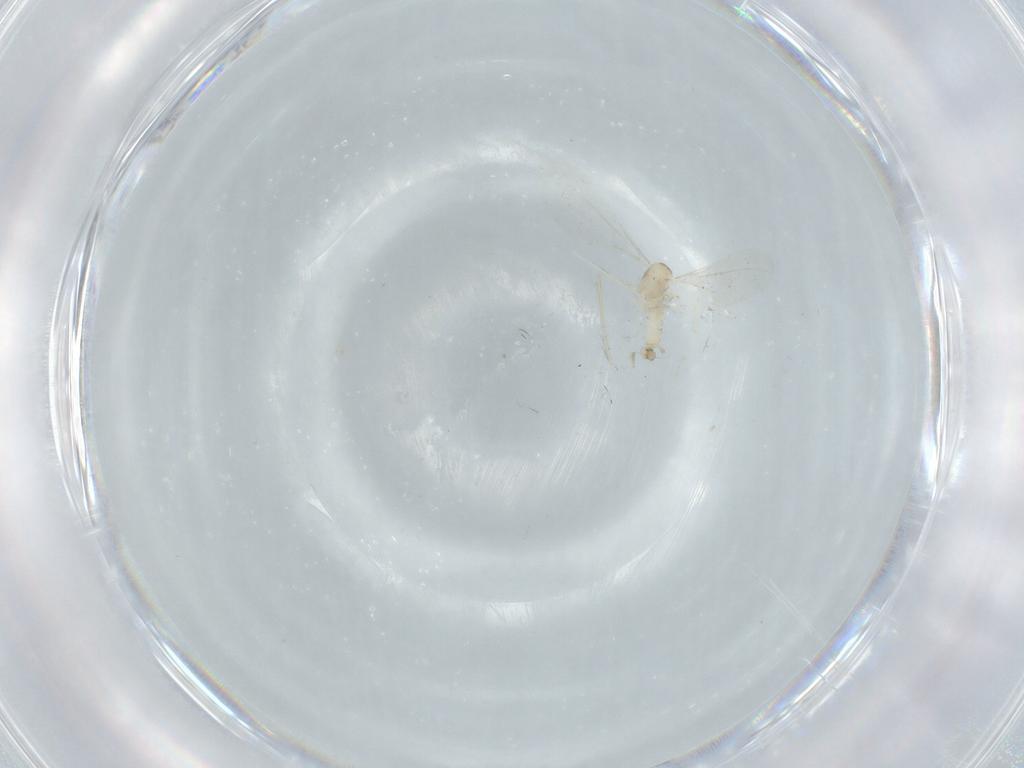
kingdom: Animalia
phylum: Arthropoda
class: Insecta
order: Diptera
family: Cecidomyiidae
